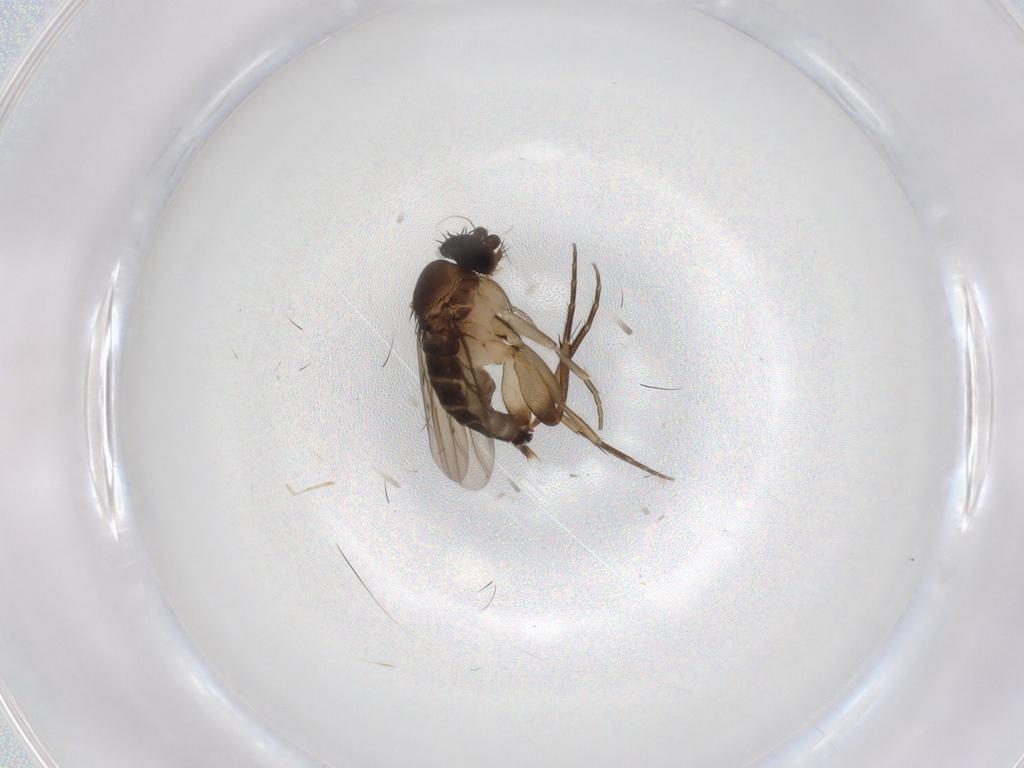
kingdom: Animalia
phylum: Arthropoda
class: Insecta
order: Diptera
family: Phoridae
